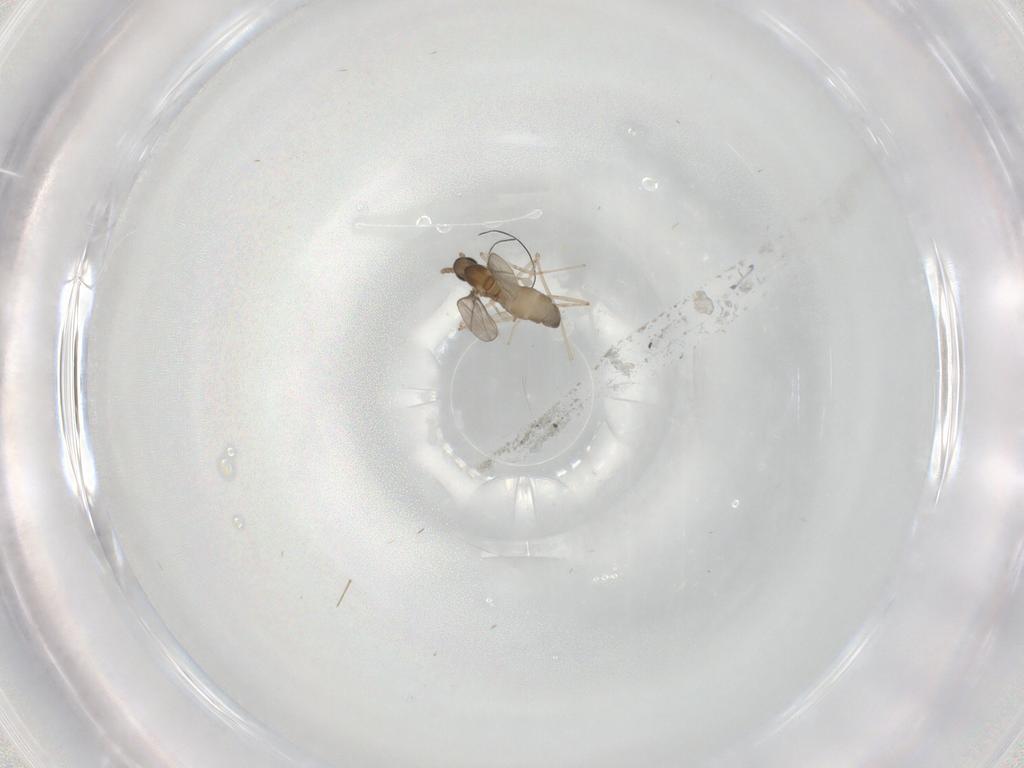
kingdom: Animalia
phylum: Arthropoda
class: Insecta
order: Diptera
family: Cecidomyiidae
